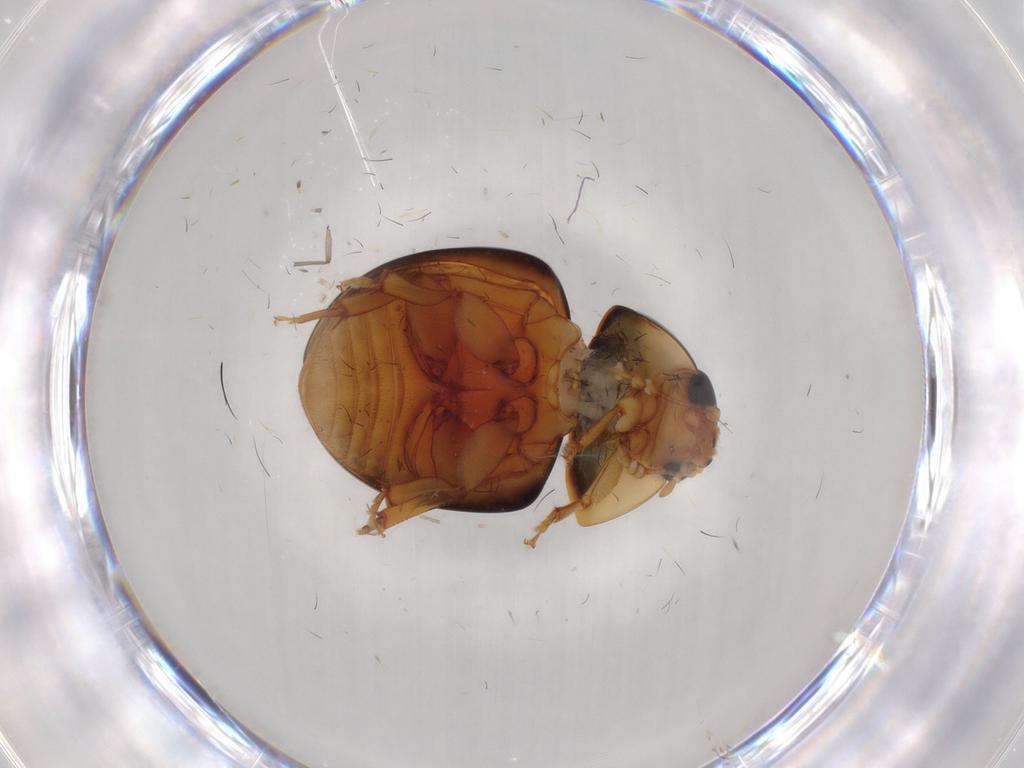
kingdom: Animalia
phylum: Arthropoda
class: Insecta
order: Coleoptera
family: Phalacridae
